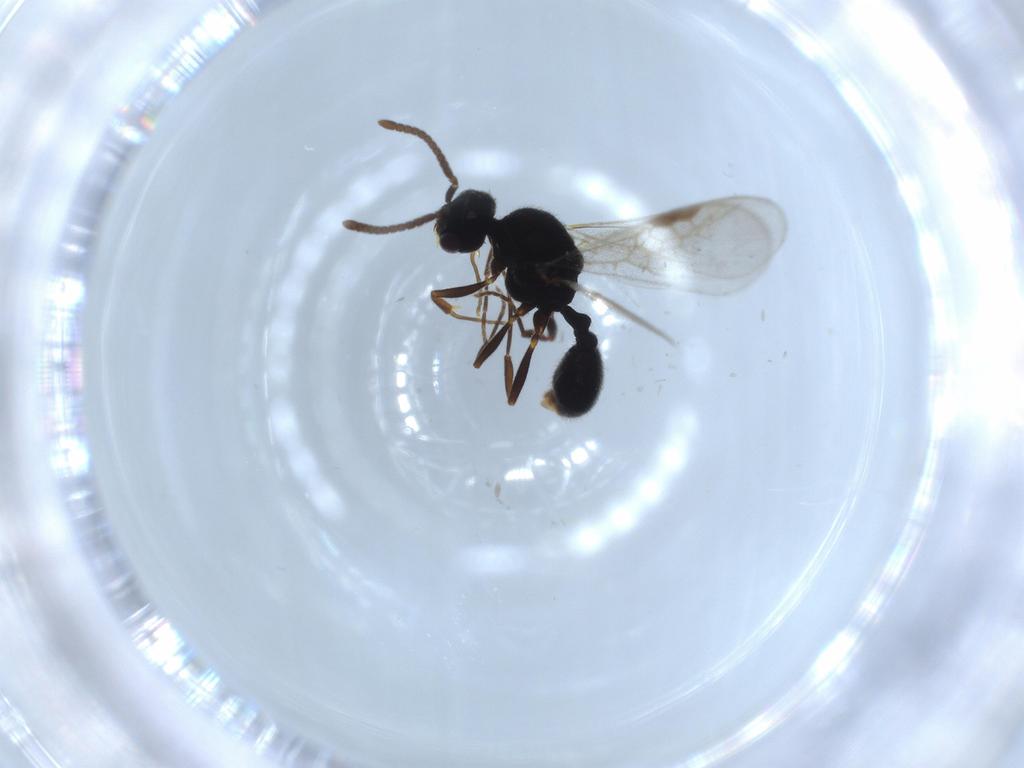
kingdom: Animalia
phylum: Arthropoda
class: Insecta
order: Hymenoptera
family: Formicidae
